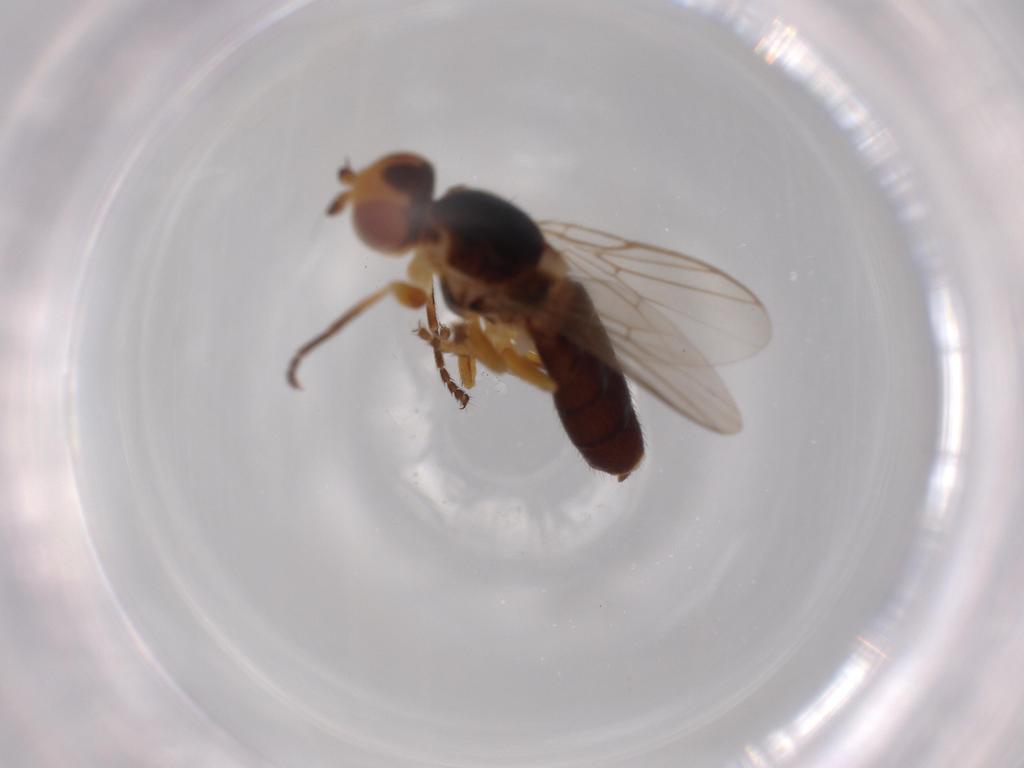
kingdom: Animalia
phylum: Arthropoda
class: Insecta
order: Diptera
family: Chloropidae
